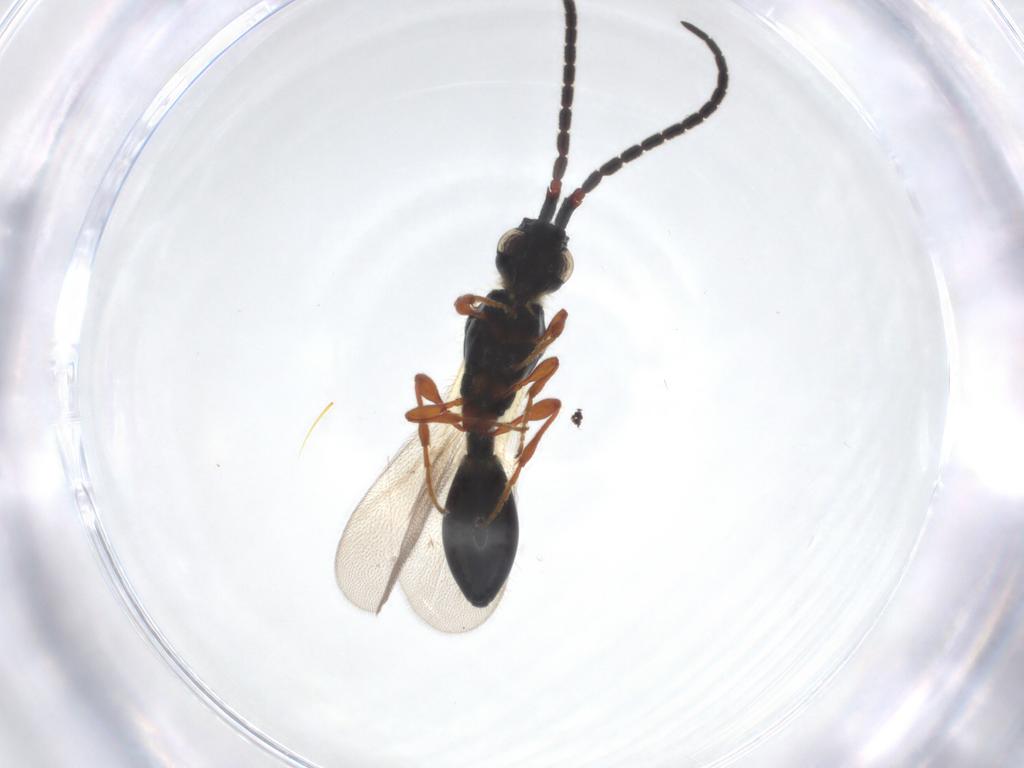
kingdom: Animalia
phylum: Arthropoda
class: Insecta
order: Hymenoptera
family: Diapriidae
